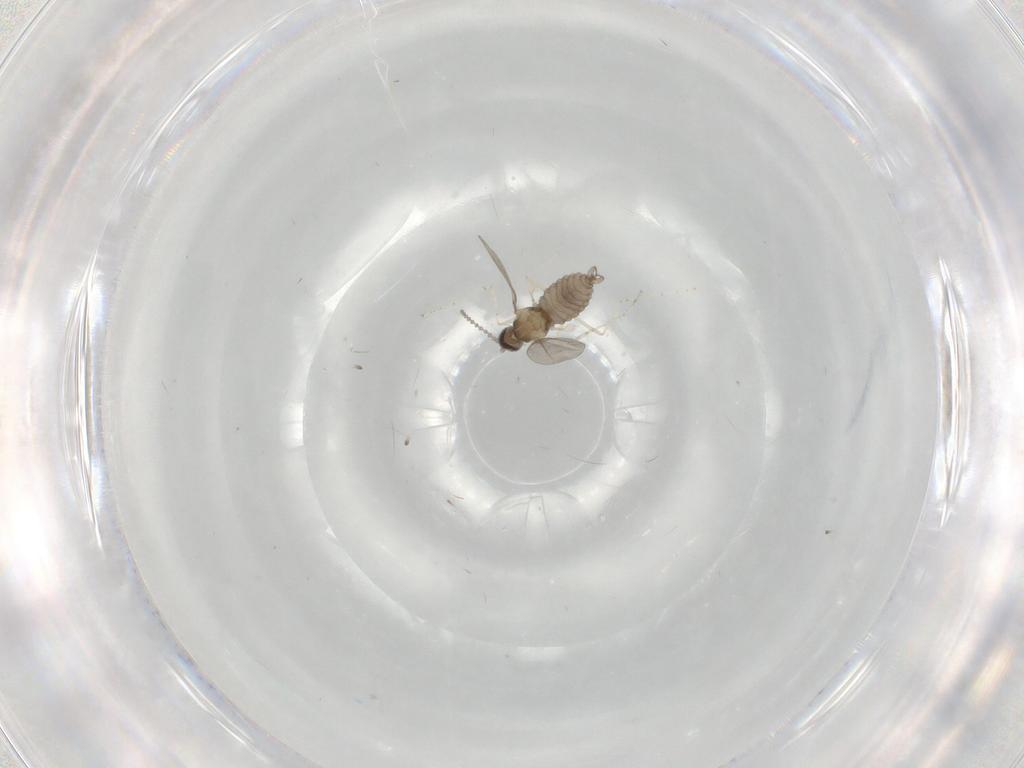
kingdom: Animalia
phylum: Arthropoda
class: Insecta
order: Diptera
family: Psychodidae
